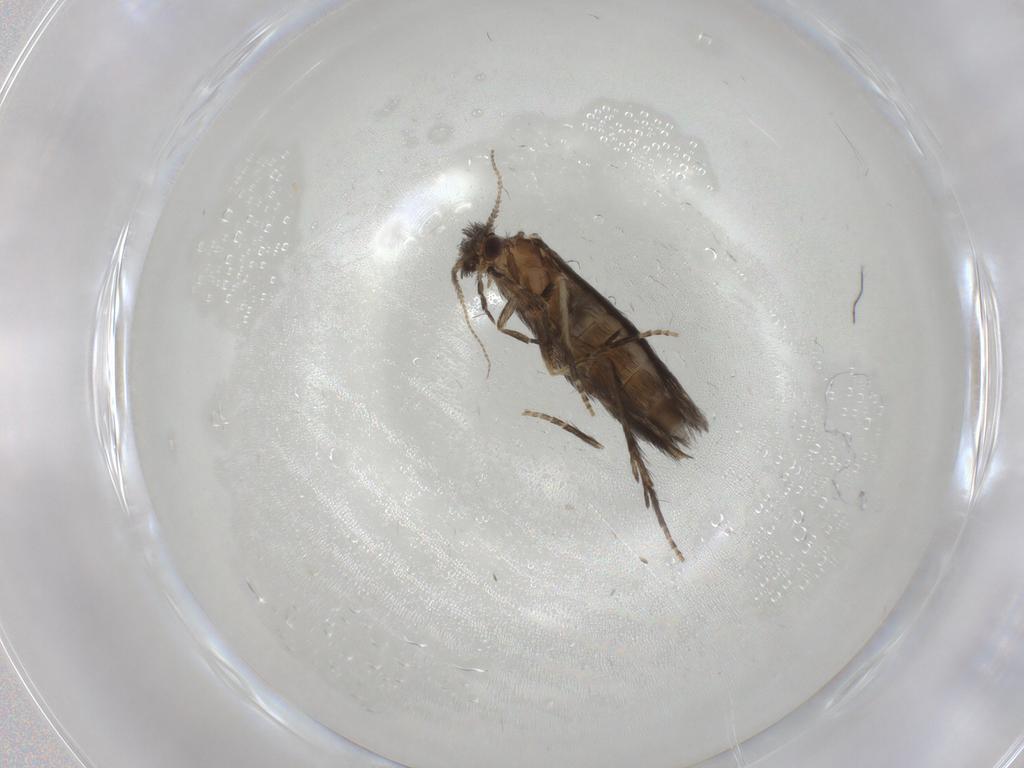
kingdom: Animalia
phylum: Arthropoda
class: Insecta
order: Trichoptera
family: Hydroptilidae
